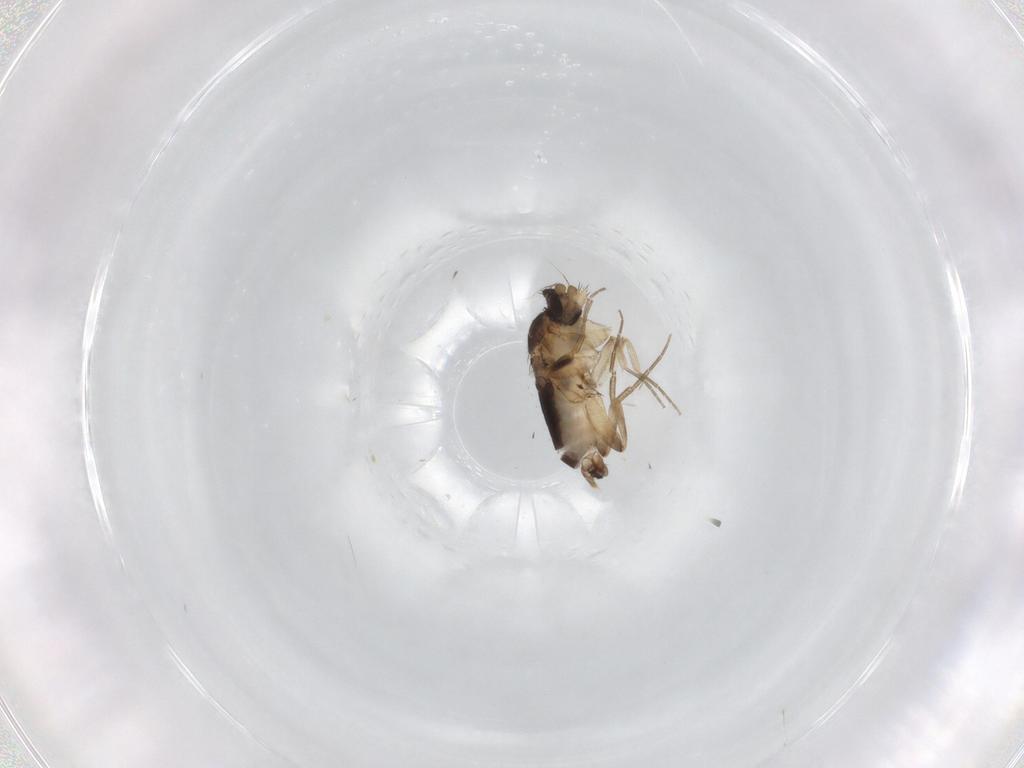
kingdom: Animalia
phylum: Arthropoda
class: Insecta
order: Diptera
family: Phoridae
